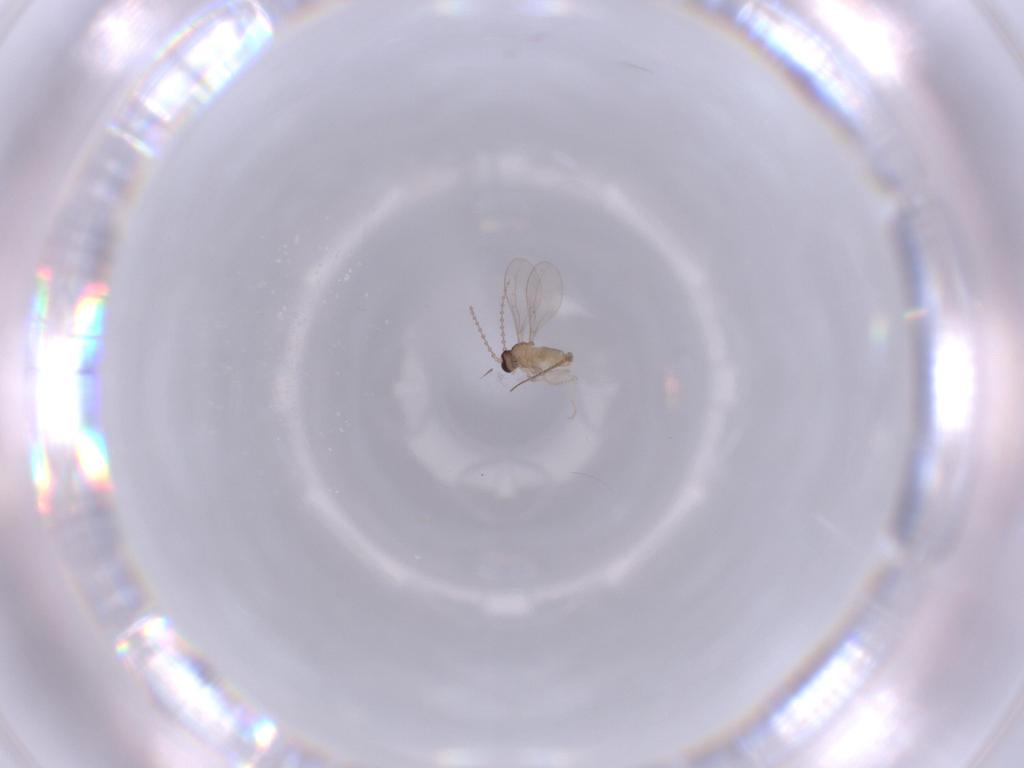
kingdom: Animalia
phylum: Arthropoda
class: Insecta
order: Diptera
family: Cecidomyiidae
